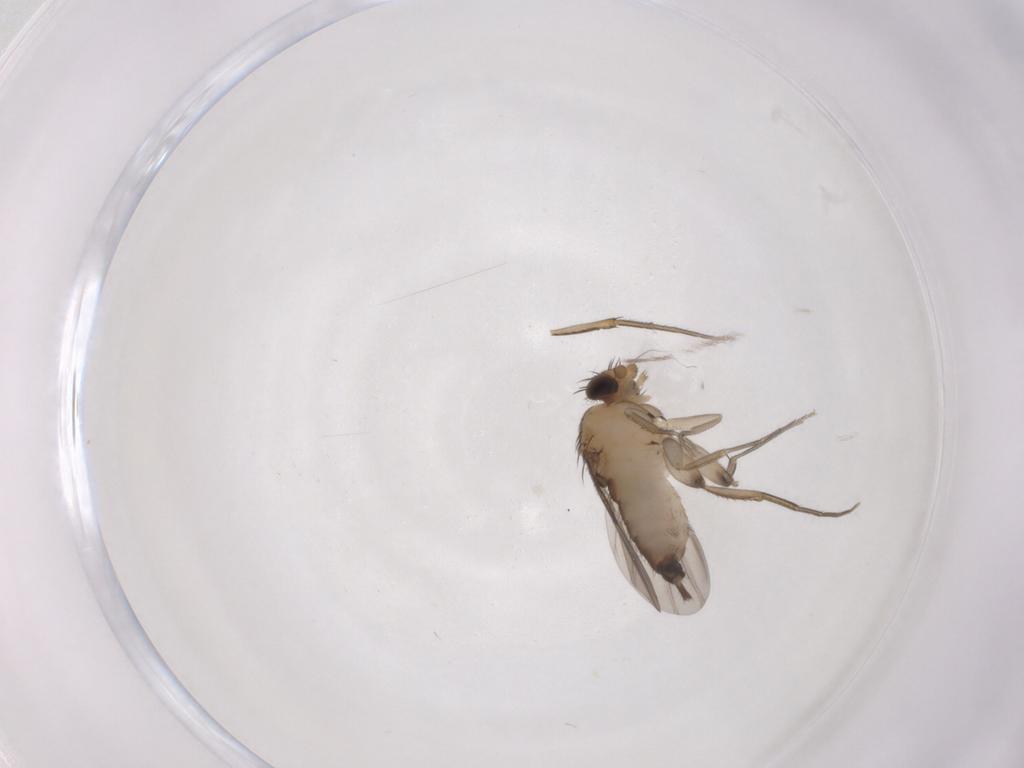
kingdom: Animalia
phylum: Arthropoda
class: Insecta
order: Diptera
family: Phoridae
